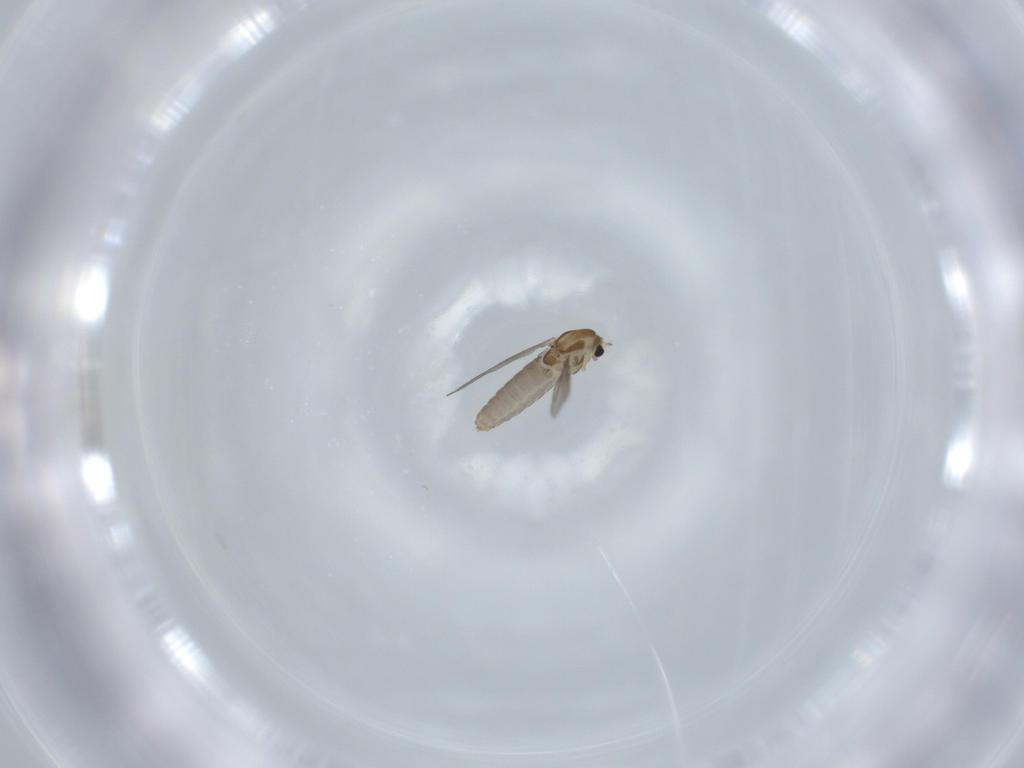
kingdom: Animalia
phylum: Arthropoda
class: Insecta
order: Diptera
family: Chironomidae
